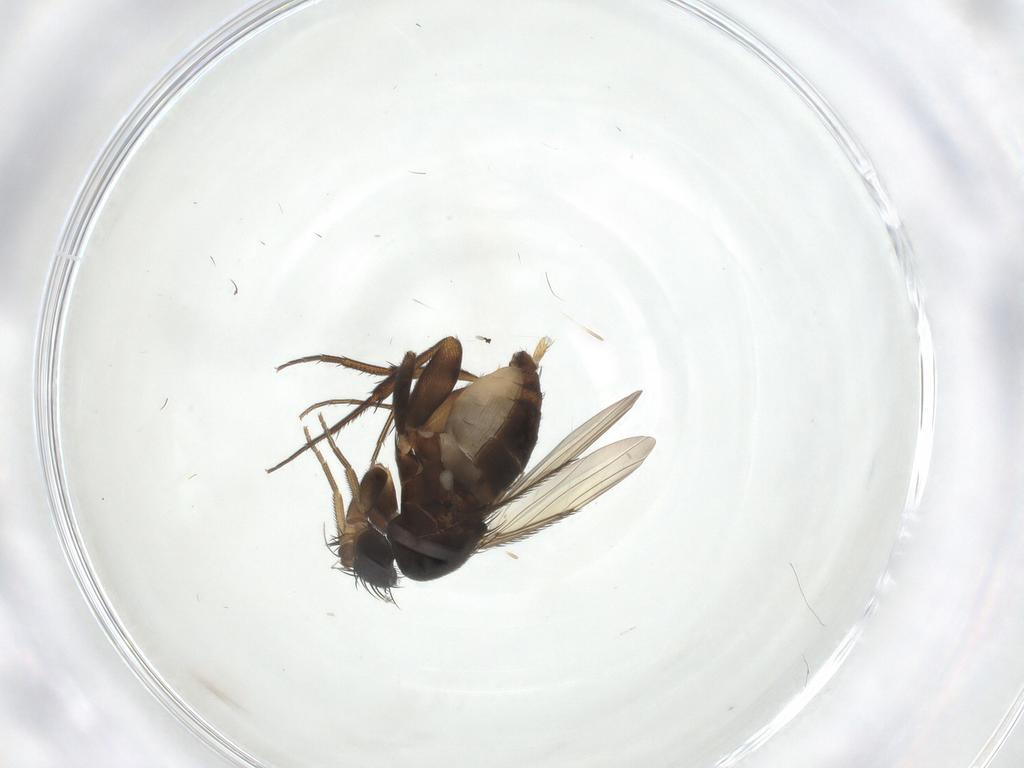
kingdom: Animalia
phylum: Arthropoda
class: Insecta
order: Diptera
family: Phoridae
